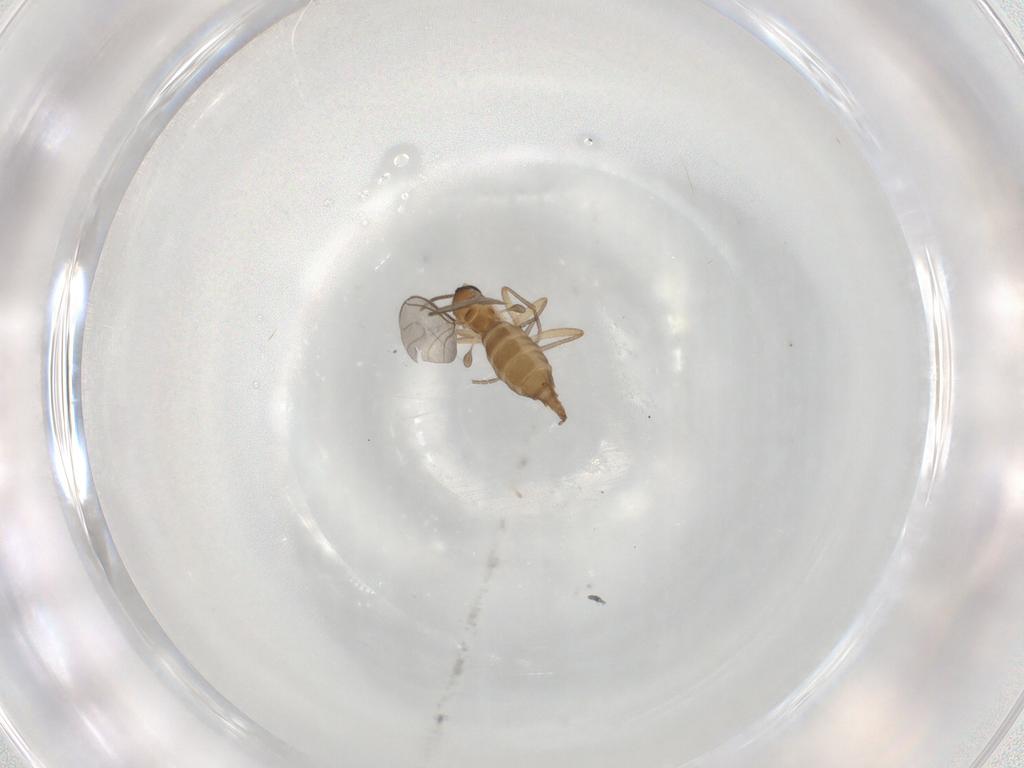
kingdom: Animalia
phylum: Arthropoda
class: Insecta
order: Diptera
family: Sciaridae
